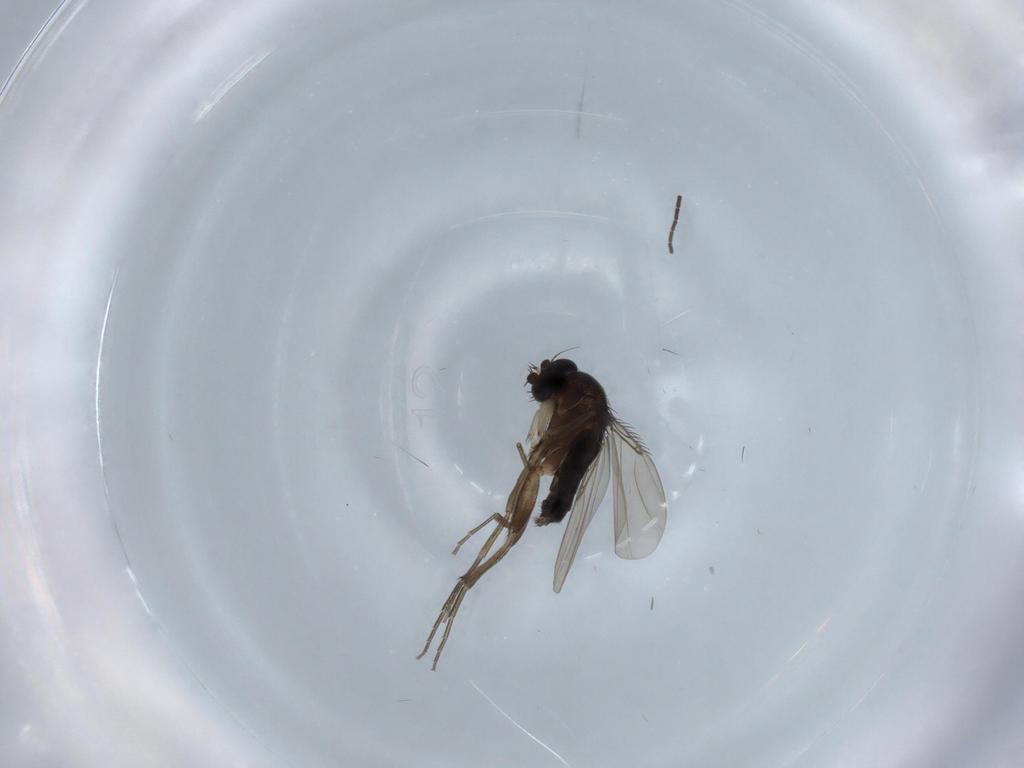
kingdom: Animalia
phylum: Arthropoda
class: Insecta
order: Diptera
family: Phoridae
